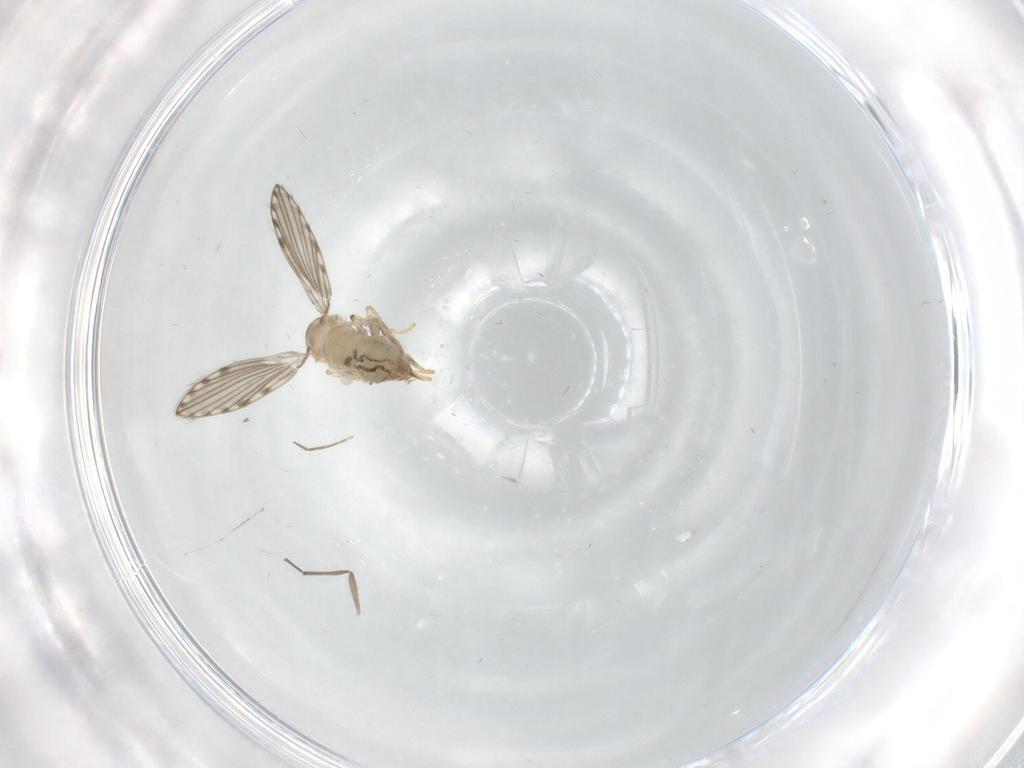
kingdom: Animalia
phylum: Arthropoda
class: Insecta
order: Diptera
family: Psychodidae
